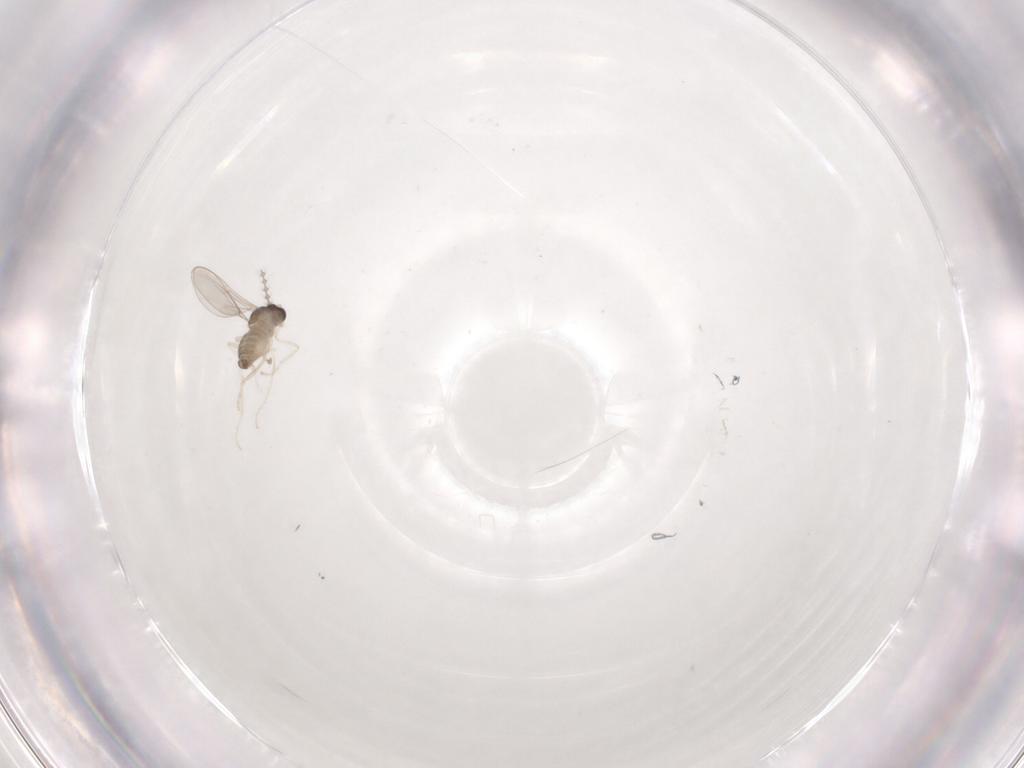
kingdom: Animalia
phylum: Arthropoda
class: Insecta
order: Diptera
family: Cecidomyiidae
